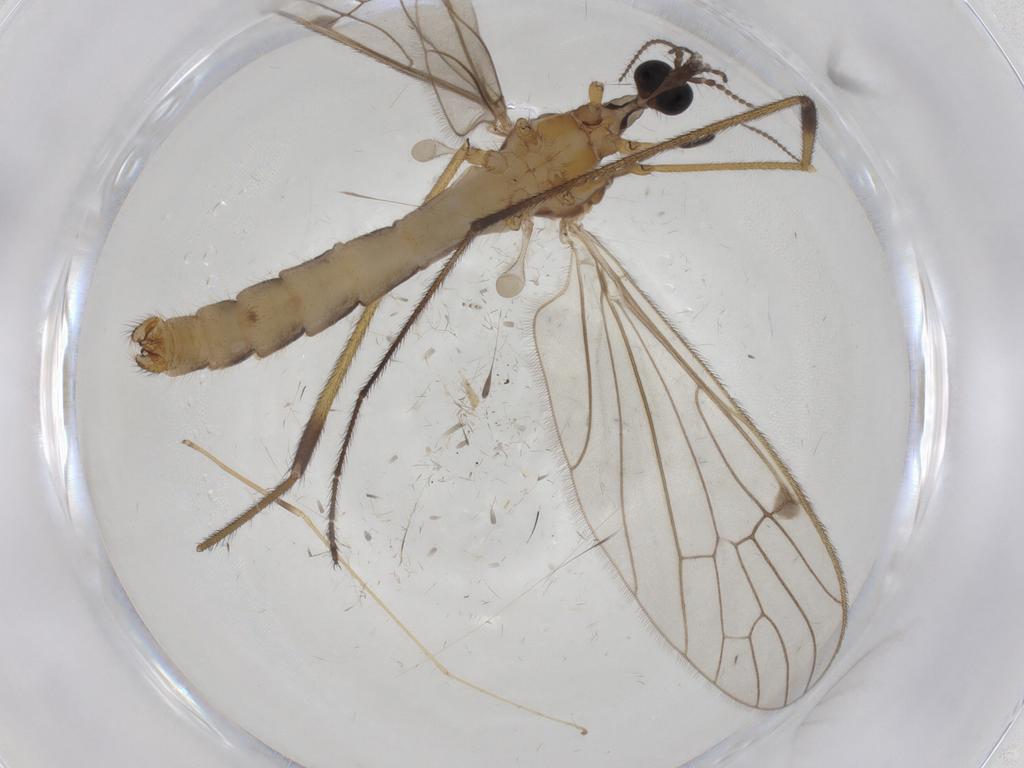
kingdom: Animalia
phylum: Arthropoda
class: Insecta
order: Diptera
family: Limoniidae
